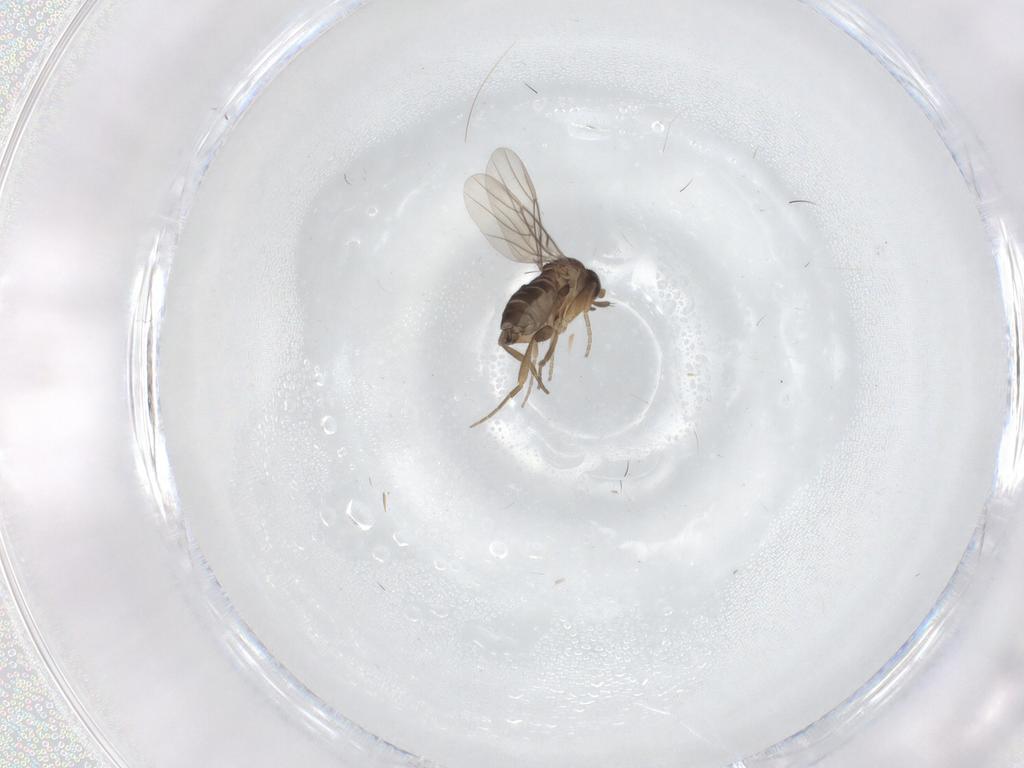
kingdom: Animalia
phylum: Arthropoda
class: Insecta
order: Diptera
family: Phoridae
